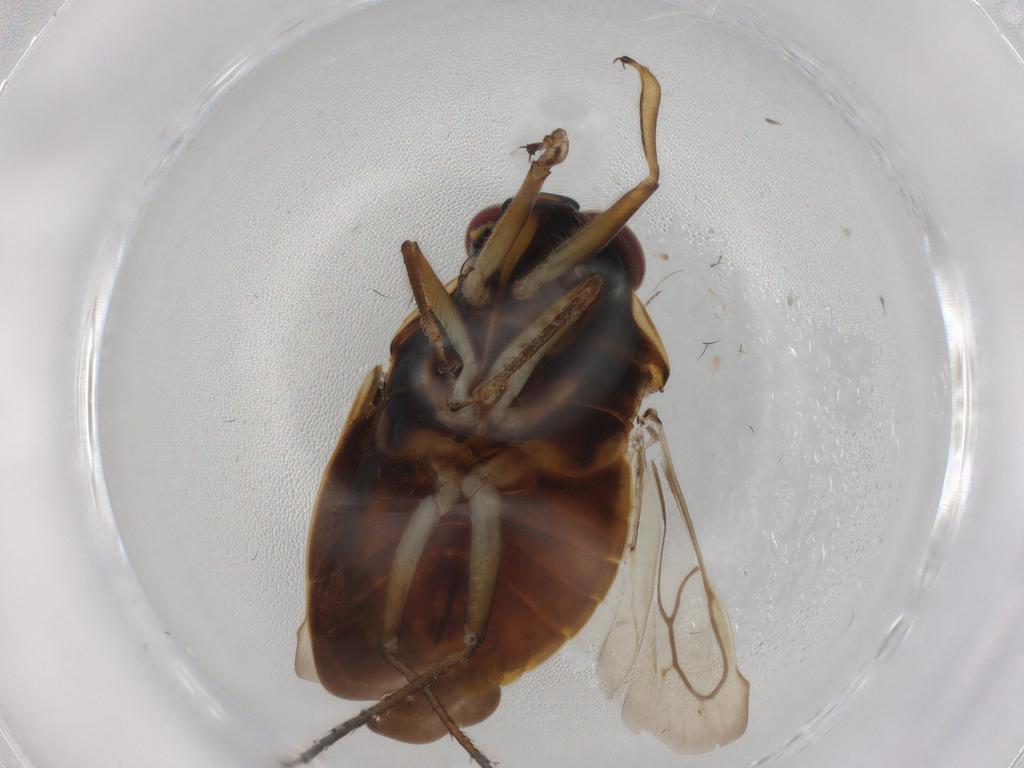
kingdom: Animalia
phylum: Arthropoda
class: Insecta
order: Hemiptera
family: Ochteridae
